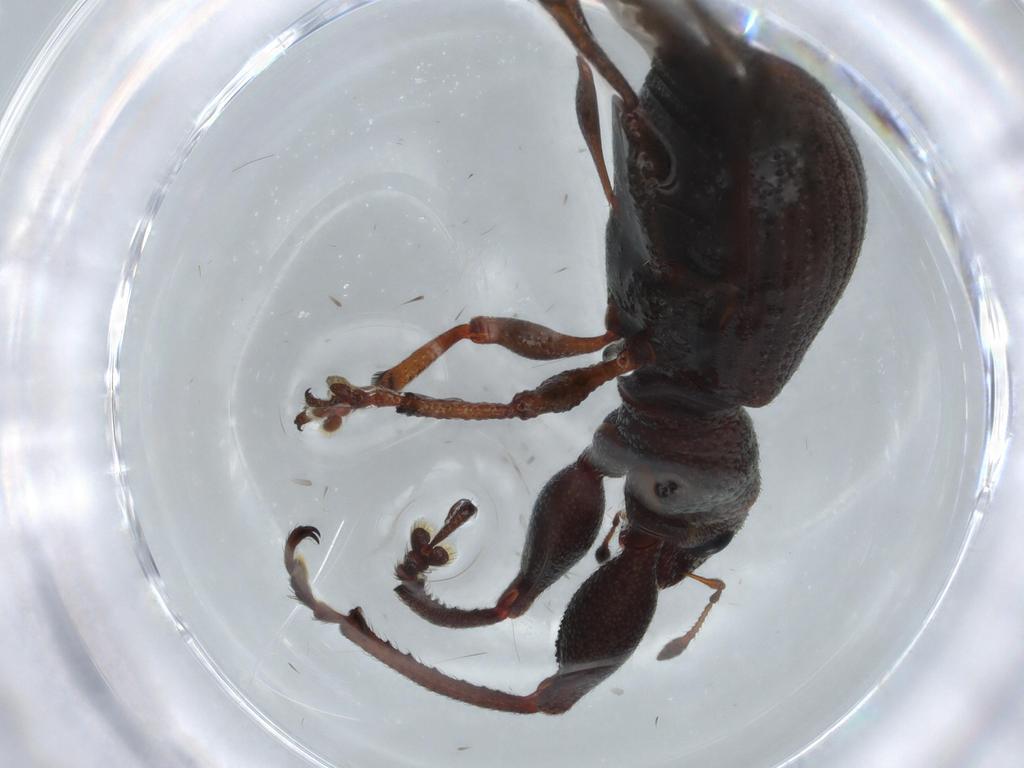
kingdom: Animalia
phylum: Arthropoda
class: Insecta
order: Coleoptera
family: Curculionidae
